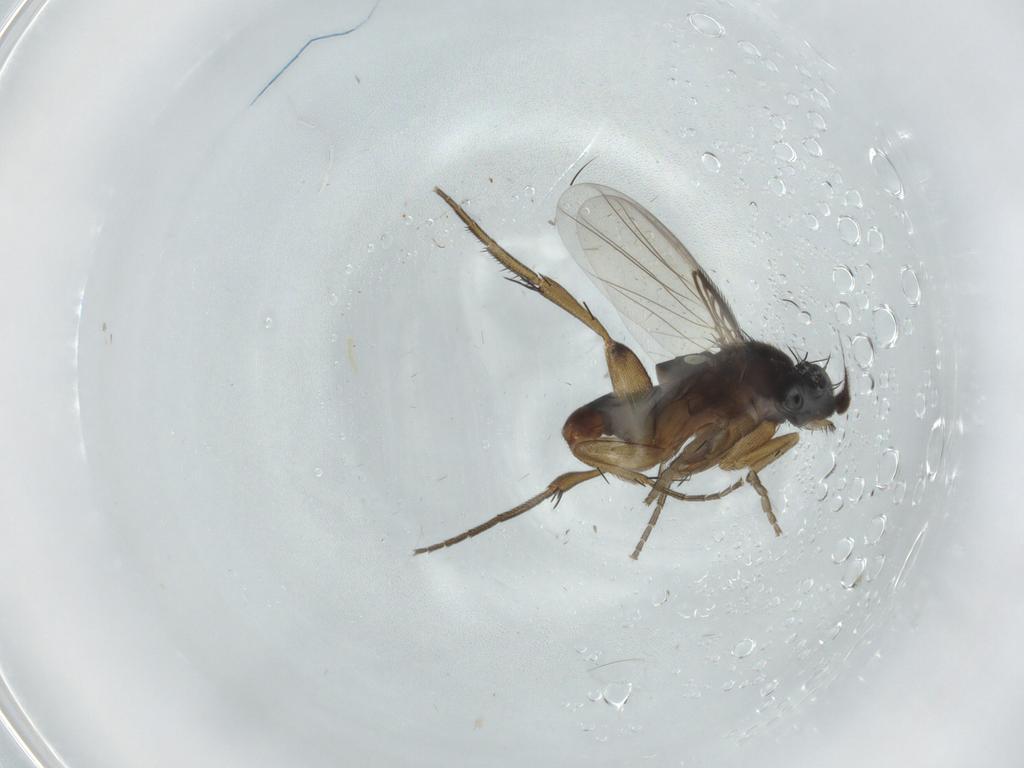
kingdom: Animalia
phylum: Arthropoda
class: Insecta
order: Diptera
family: Phoridae
